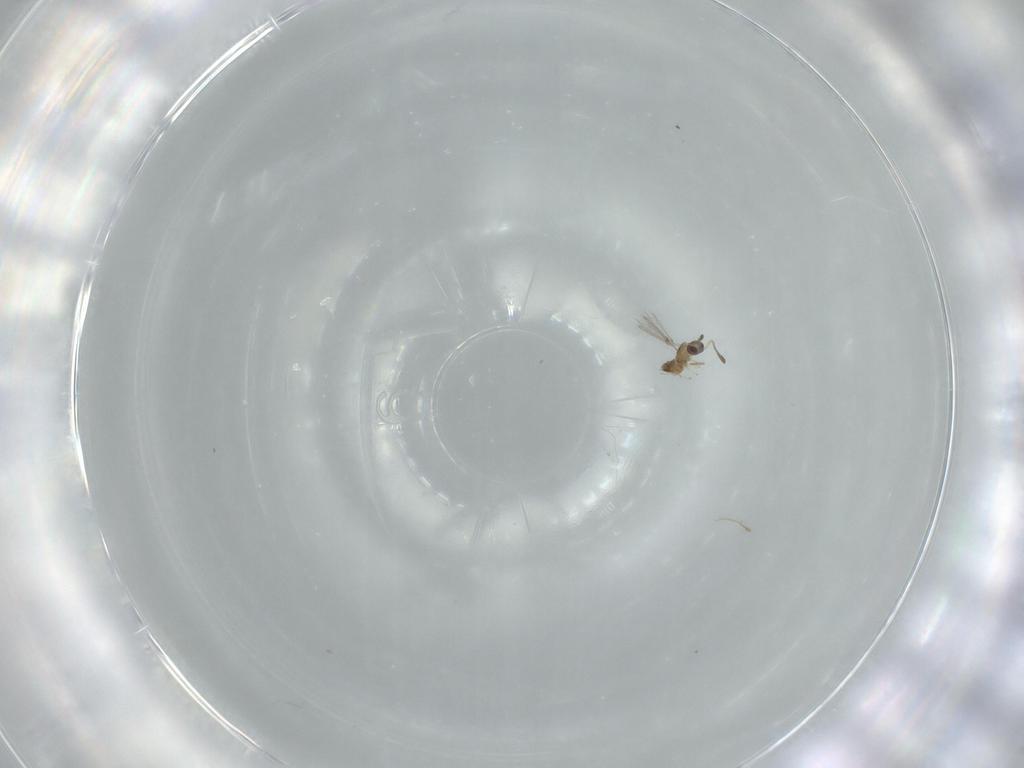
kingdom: Animalia
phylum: Arthropoda
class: Insecta
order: Hymenoptera
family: Mymaridae
